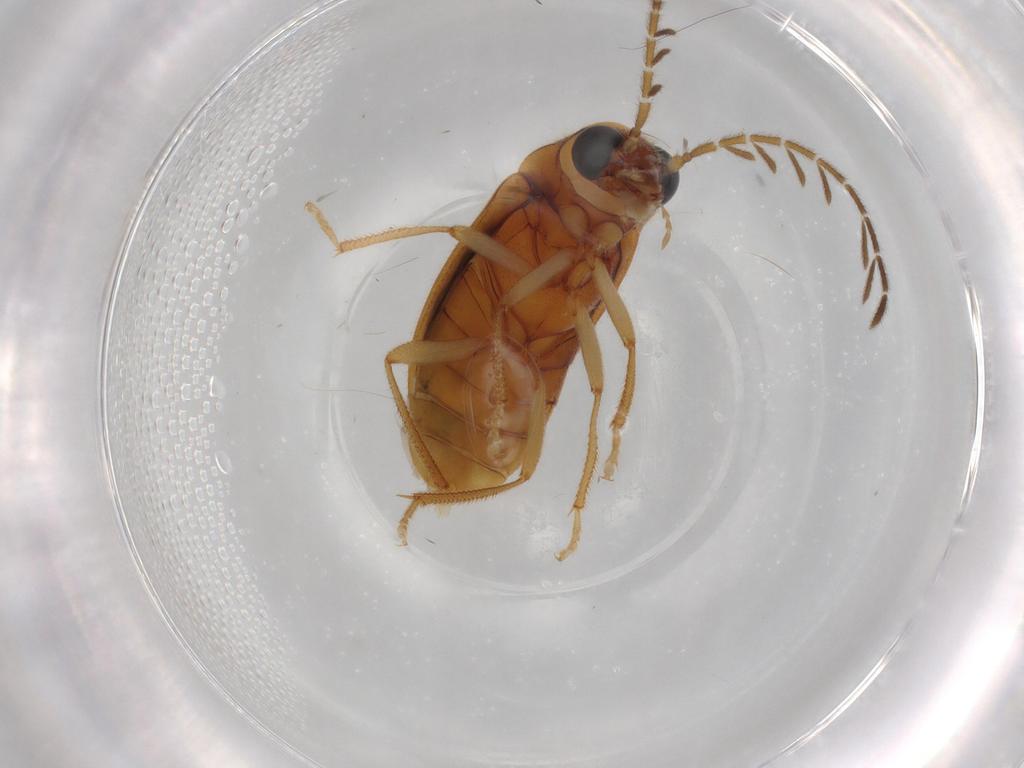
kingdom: Animalia
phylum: Arthropoda
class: Insecta
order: Coleoptera
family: Ptilodactylidae
